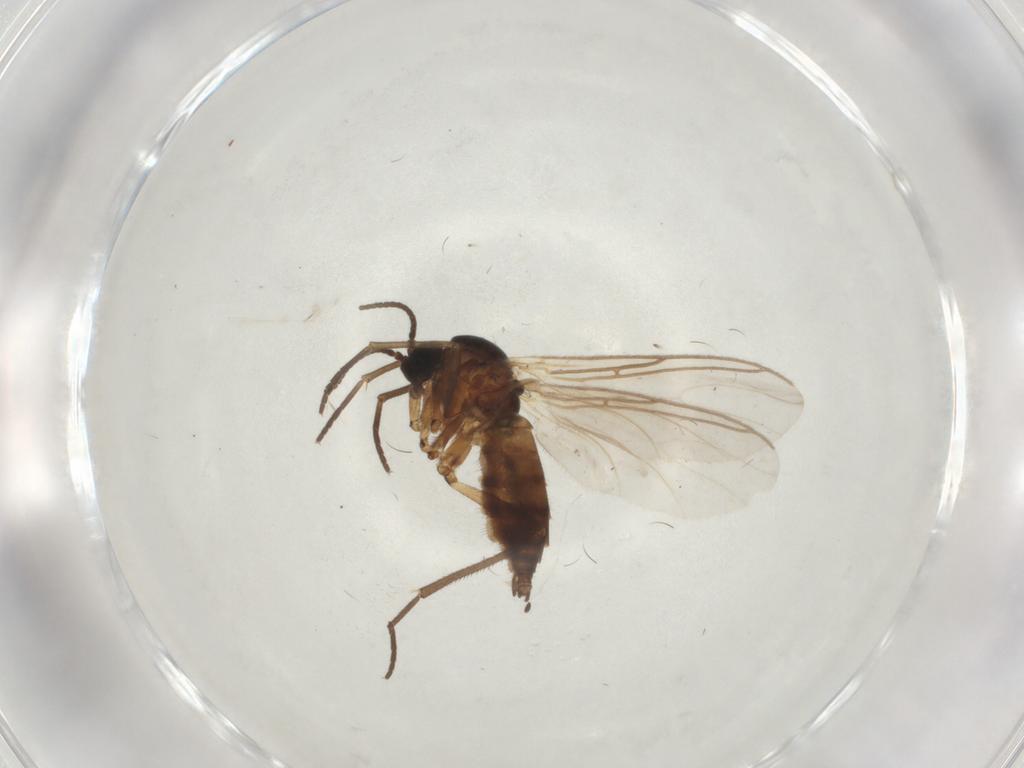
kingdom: Animalia
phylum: Arthropoda
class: Insecta
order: Diptera
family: Sciaridae
